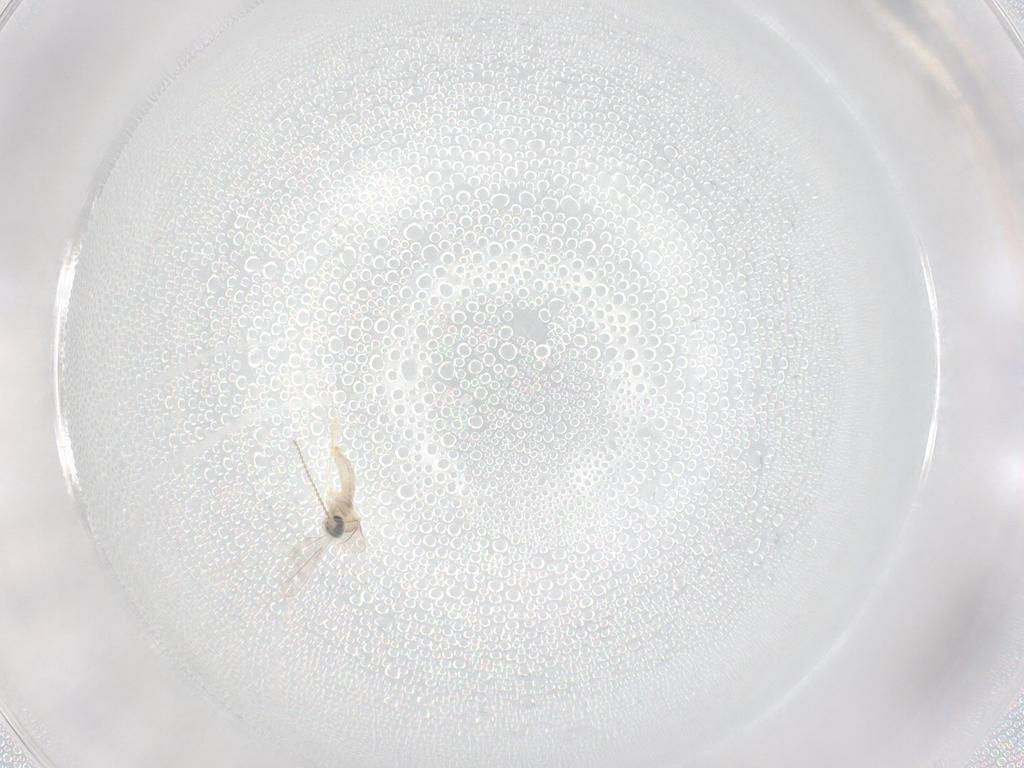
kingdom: Animalia
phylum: Arthropoda
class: Insecta
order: Diptera
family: Cecidomyiidae
